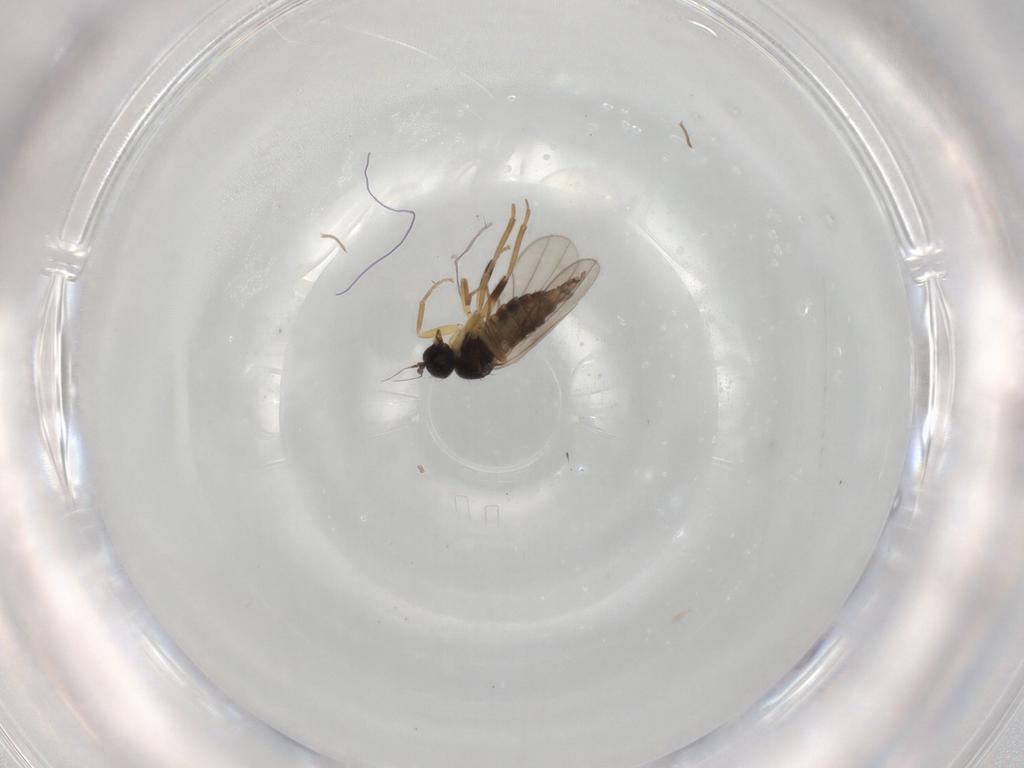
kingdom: Animalia
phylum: Arthropoda
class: Insecta
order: Diptera
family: Hybotidae
